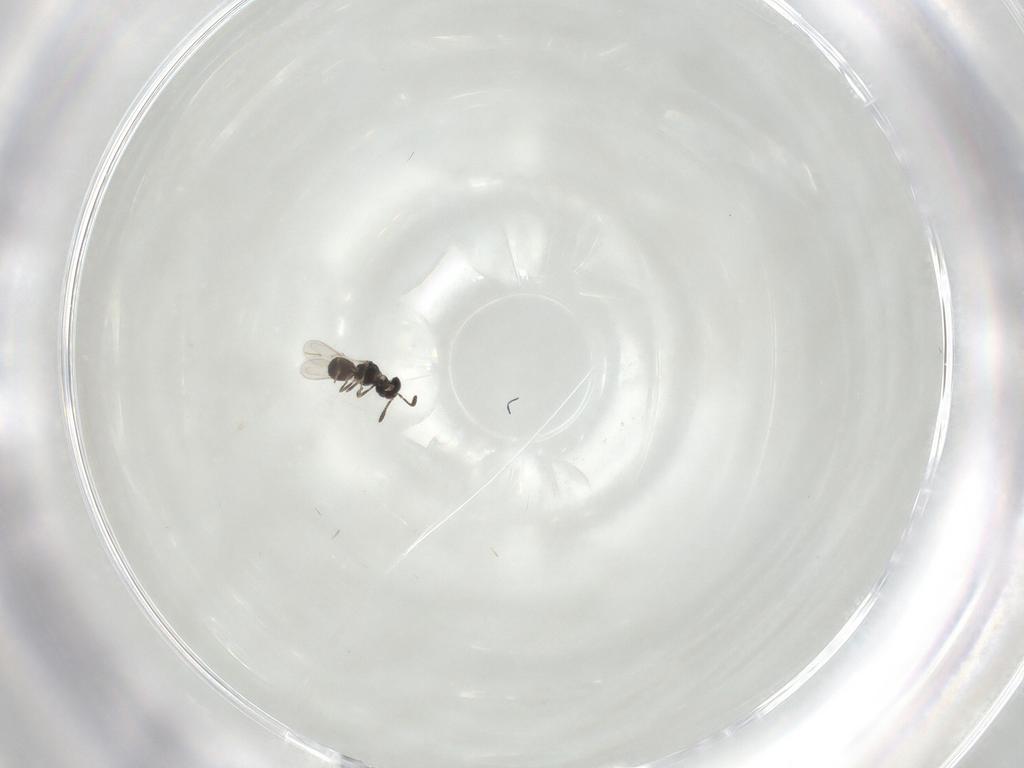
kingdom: Animalia
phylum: Arthropoda
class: Insecta
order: Hymenoptera
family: Scelionidae
